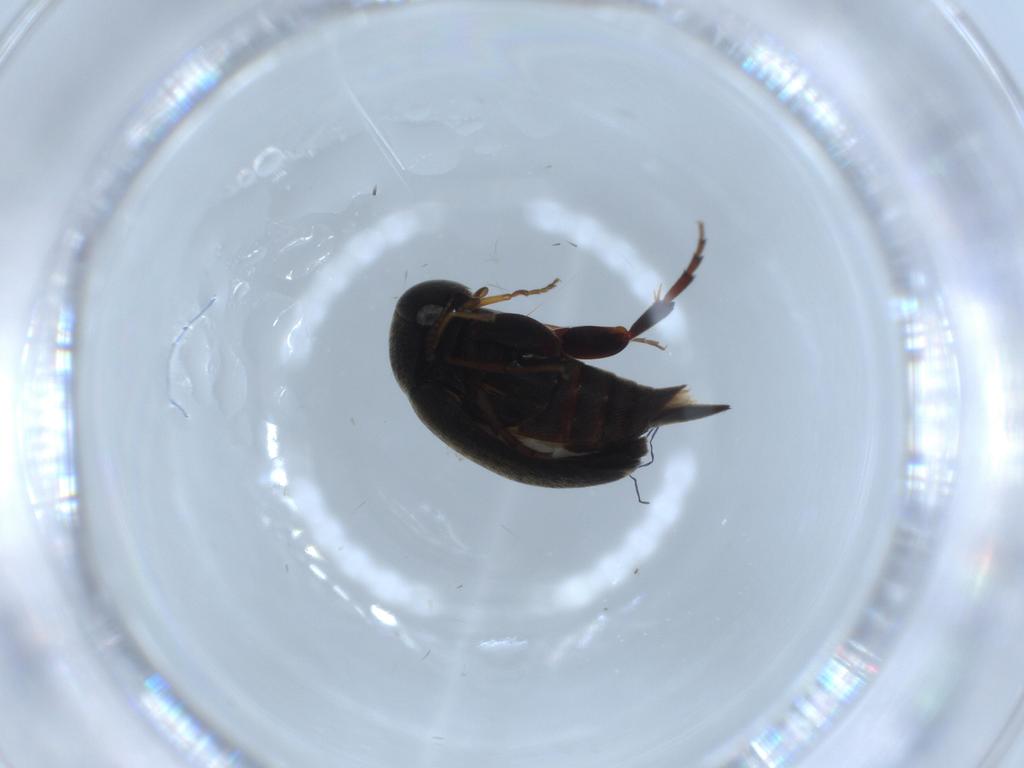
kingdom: Animalia
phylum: Arthropoda
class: Insecta
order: Coleoptera
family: Mordellidae
